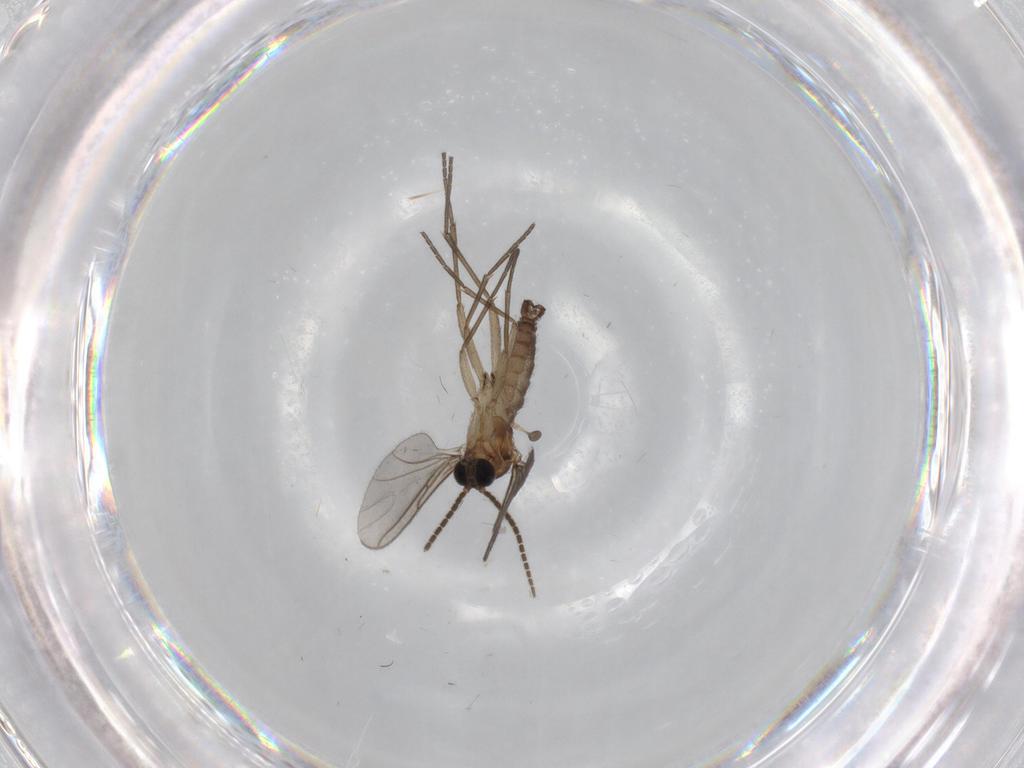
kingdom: Animalia
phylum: Arthropoda
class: Insecta
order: Diptera
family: Sciaridae
